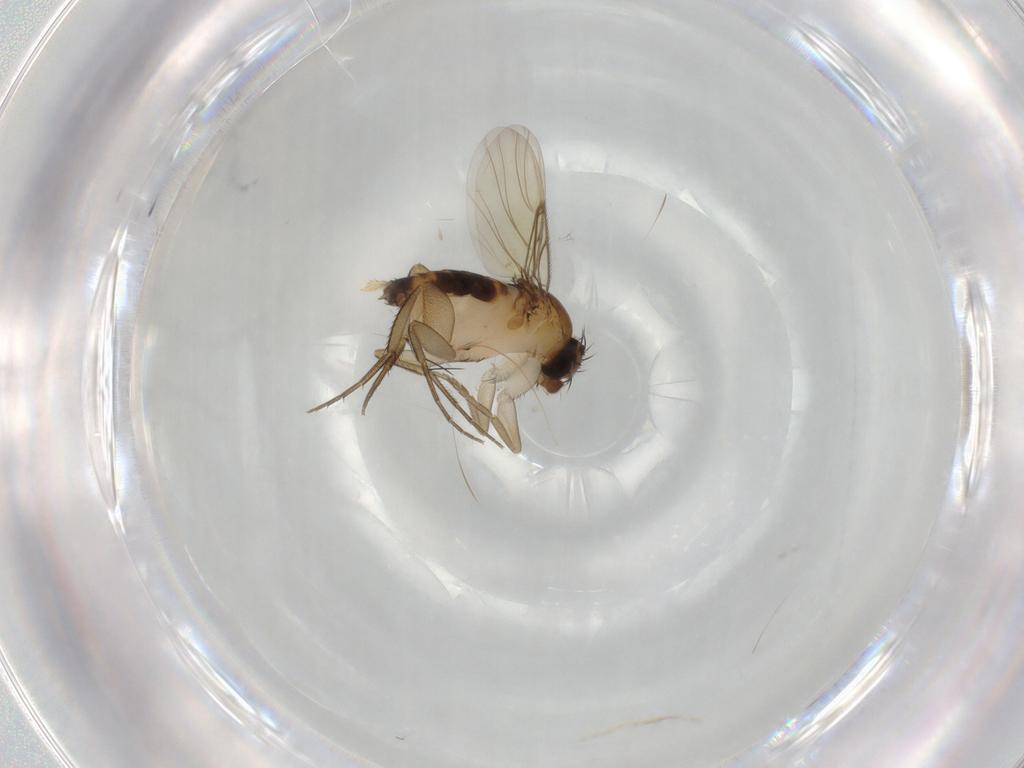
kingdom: Animalia
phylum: Arthropoda
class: Insecta
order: Diptera
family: Phoridae
